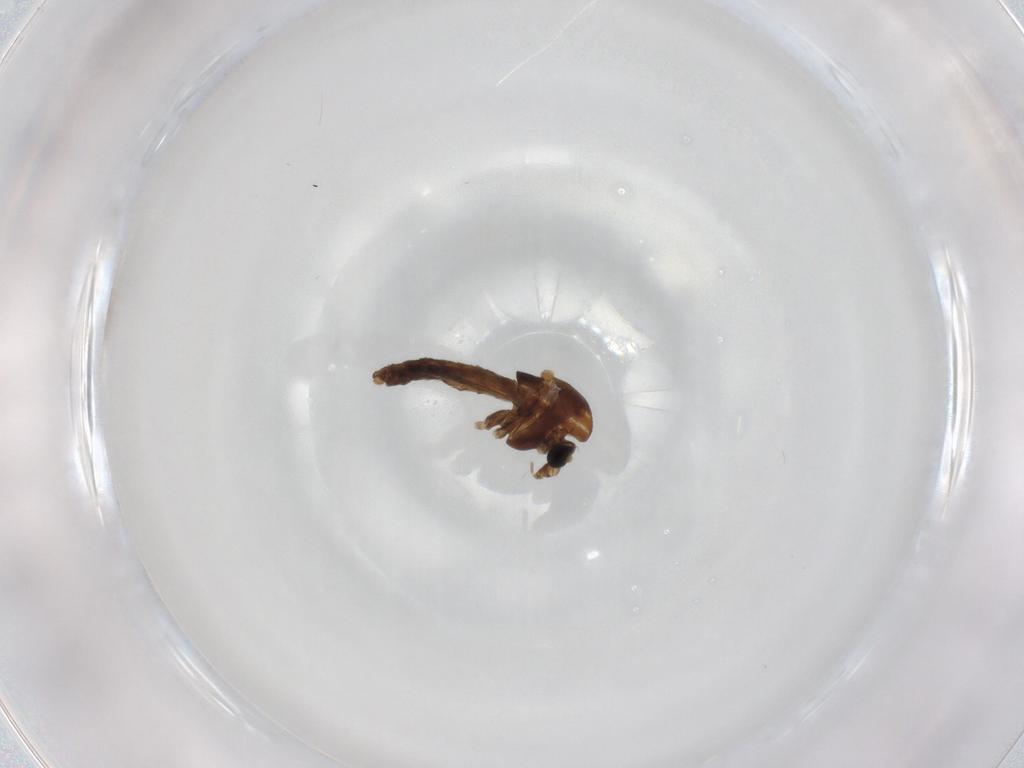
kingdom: Animalia
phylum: Arthropoda
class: Insecta
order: Diptera
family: Chironomidae
